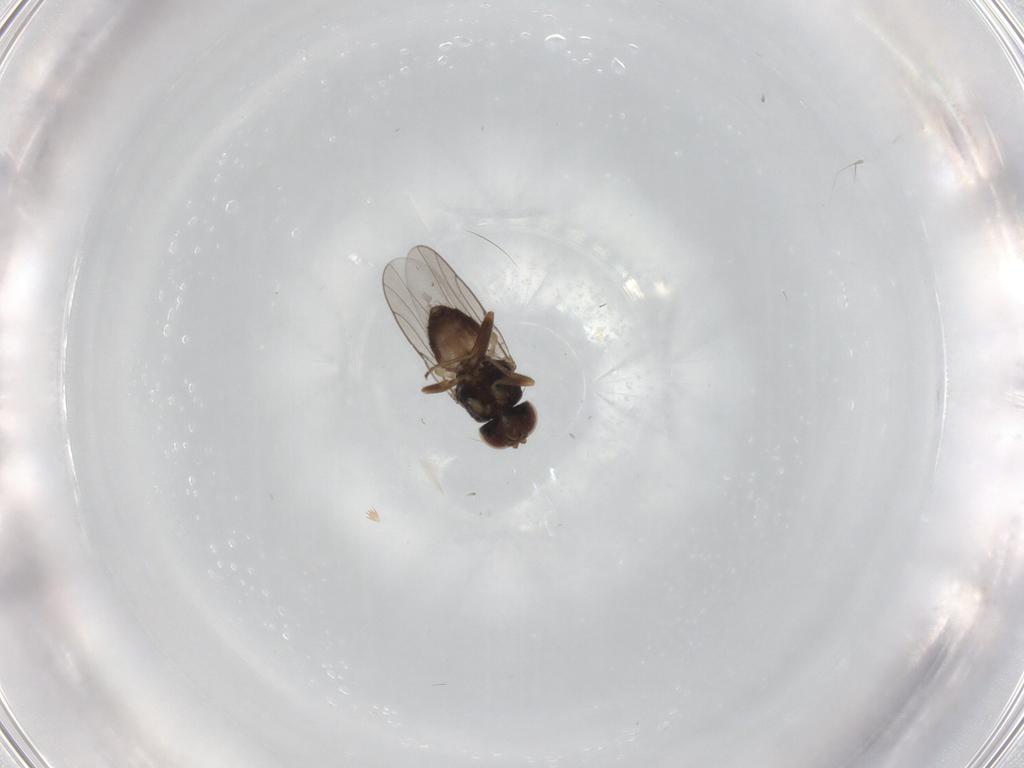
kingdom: Animalia
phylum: Arthropoda
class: Insecta
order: Diptera
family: Chloropidae
